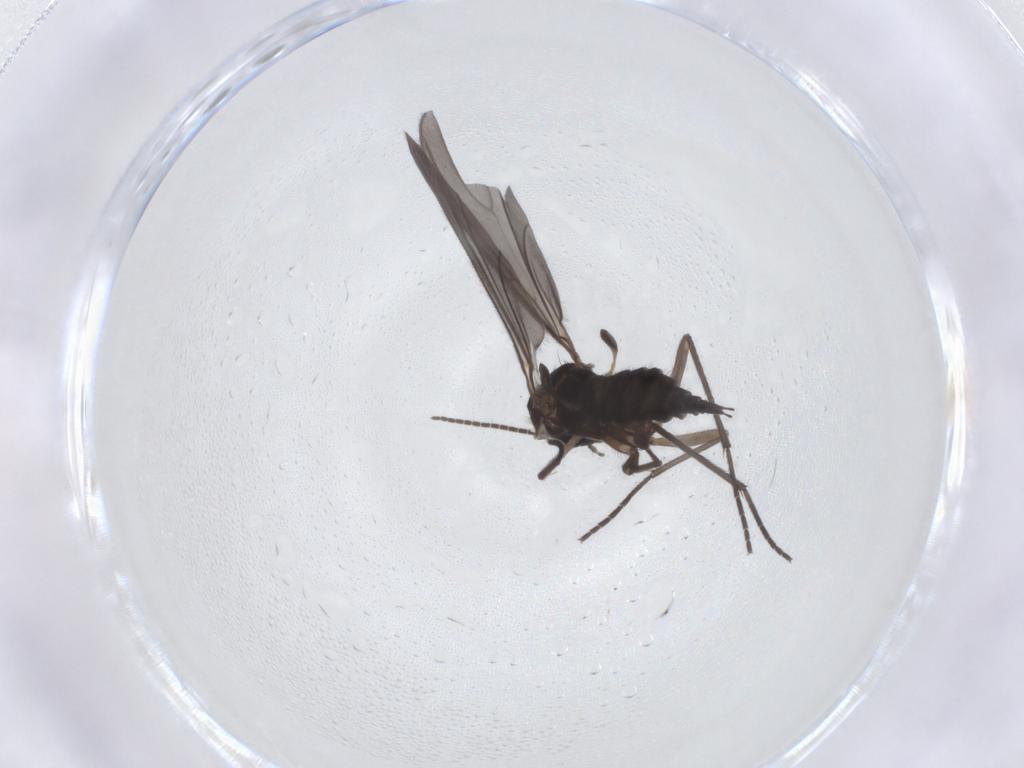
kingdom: Animalia
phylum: Arthropoda
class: Insecta
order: Diptera
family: Sciaridae
